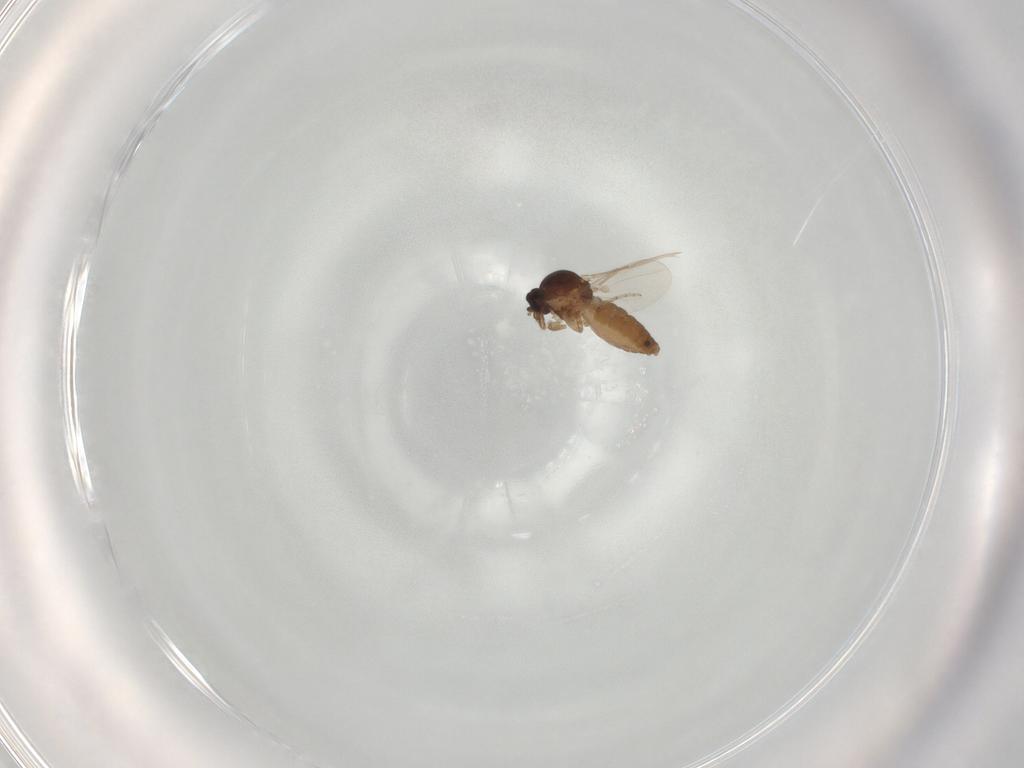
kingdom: Animalia
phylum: Arthropoda
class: Insecta
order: Diptera
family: Ceratopogonidae
